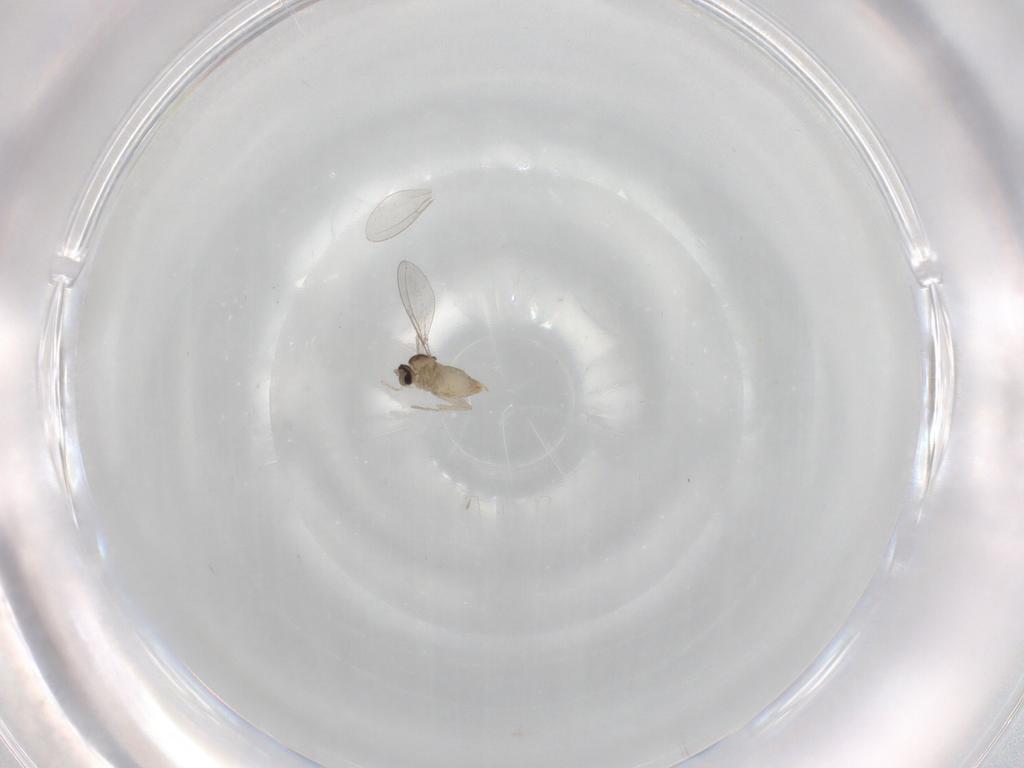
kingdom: Animalia
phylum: Arthropoda
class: Insecta
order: Diptera
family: Cecidomyiidae
